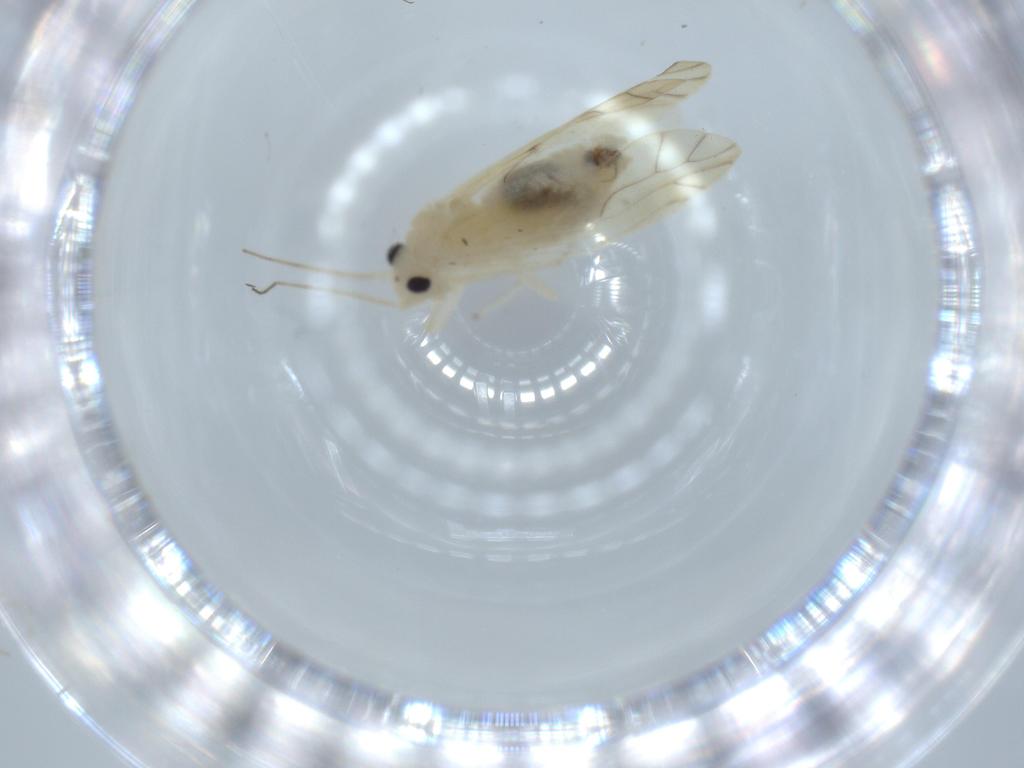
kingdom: Animalia
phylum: Arthropoda
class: Insecta
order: Psocodea
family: Caeciliusidae
